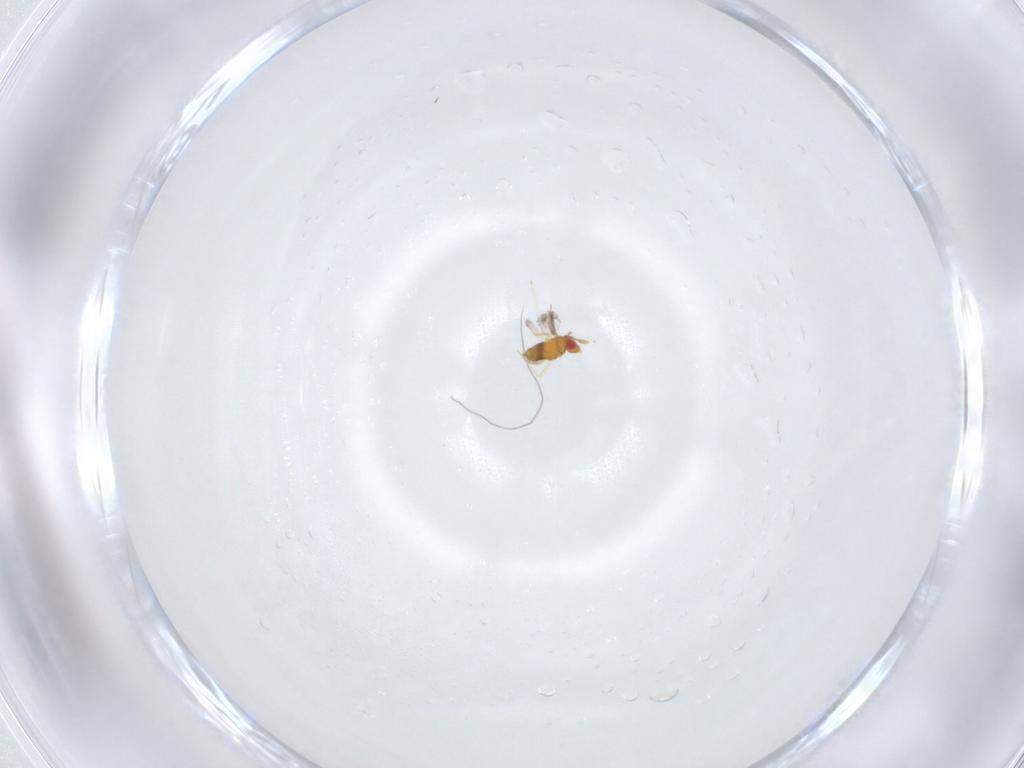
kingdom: Animalia
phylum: Arthropoda
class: Insecta
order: Hymenoptera
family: Trichogrammatidae
